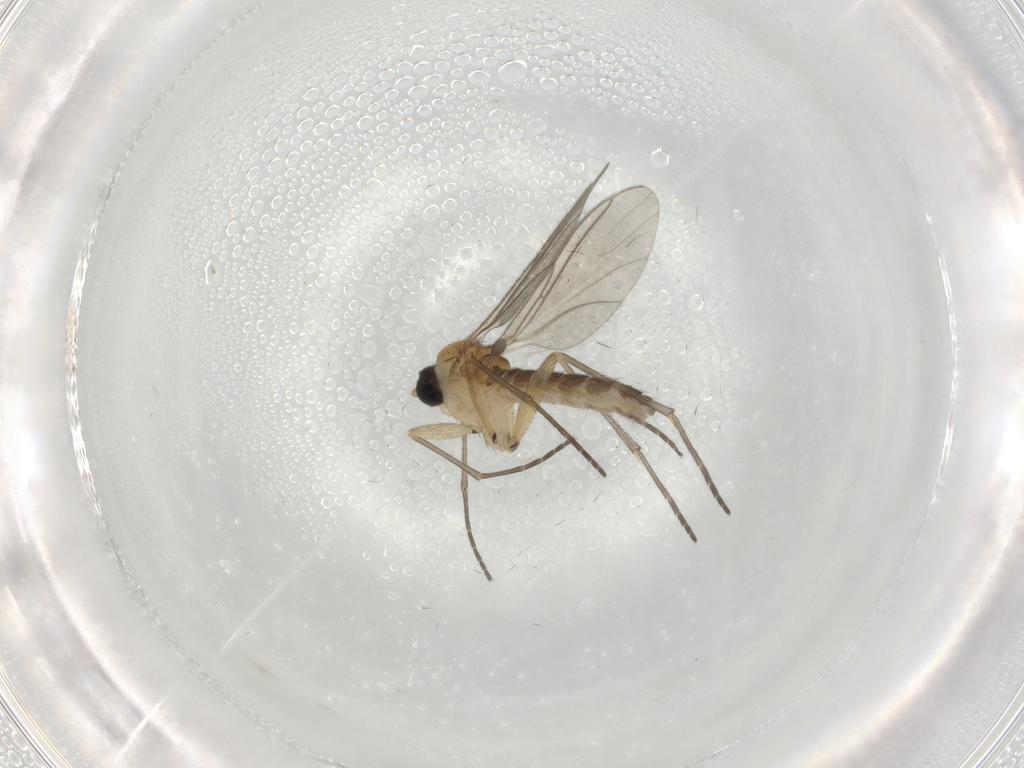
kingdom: Animalia
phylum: Arthropoda
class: Insecta
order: Diptera
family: Sciaridae
